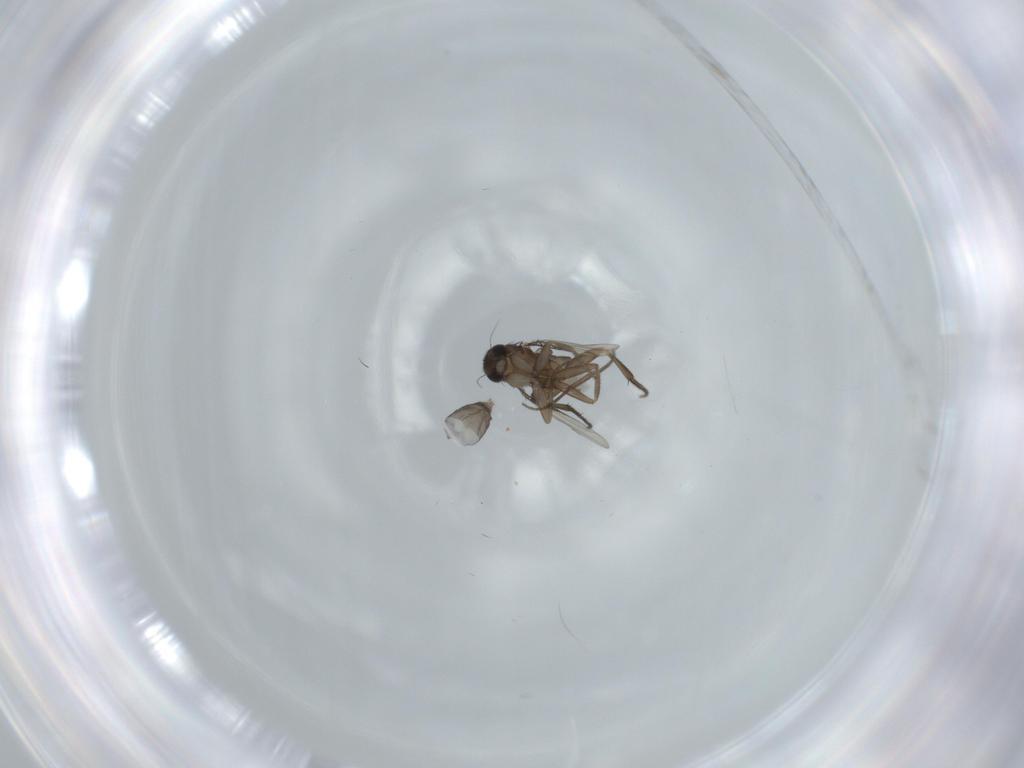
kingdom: Animalia
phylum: Arthropoda
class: Insecta
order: Diptera
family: Phoridae
